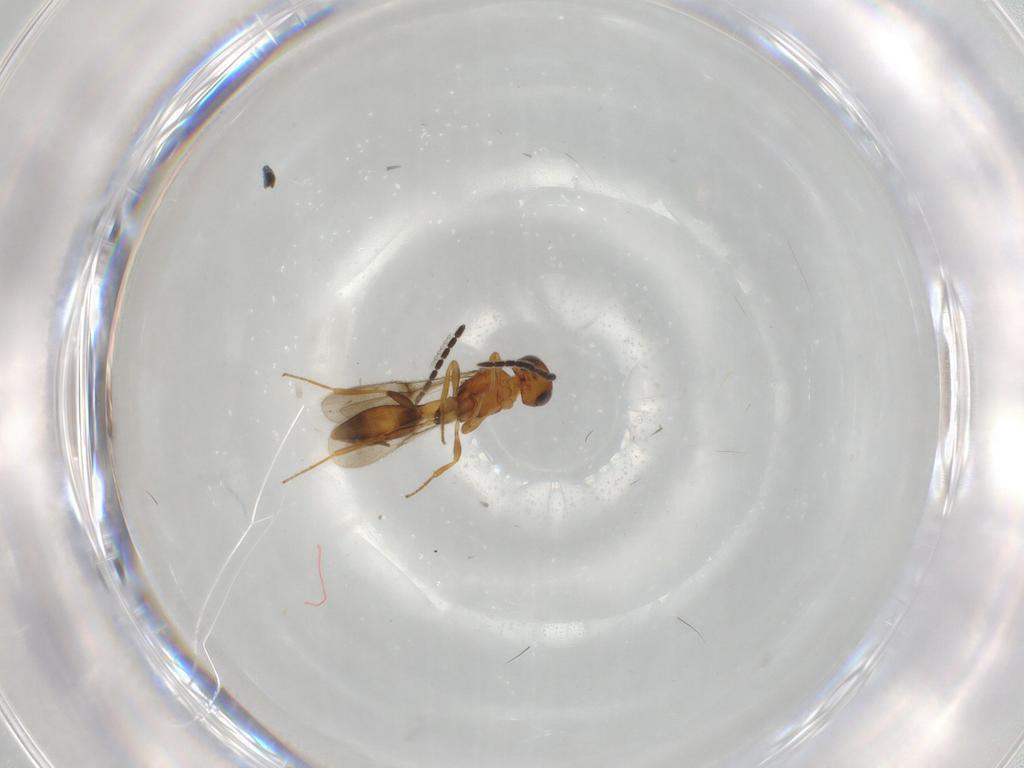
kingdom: Animalia
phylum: Arthropoda
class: Insecta
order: Hymenoptera
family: Scelionidae
